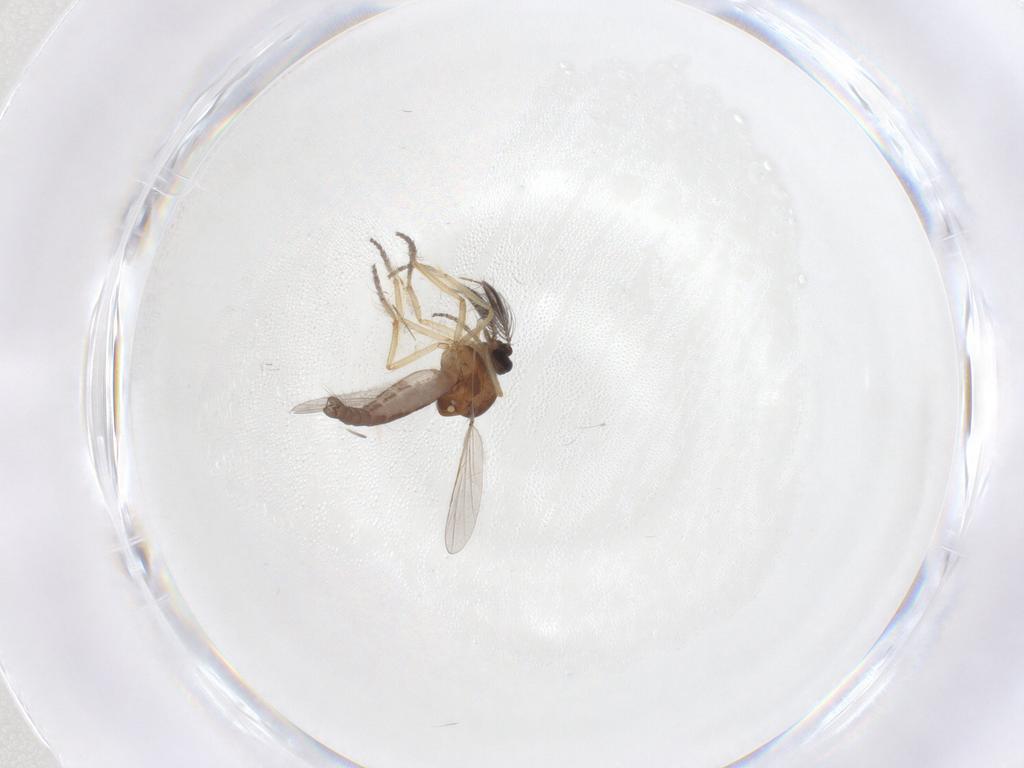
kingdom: Animalia
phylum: Arthropoda
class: Insecta
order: Diptera
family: Ceratopogonidae
